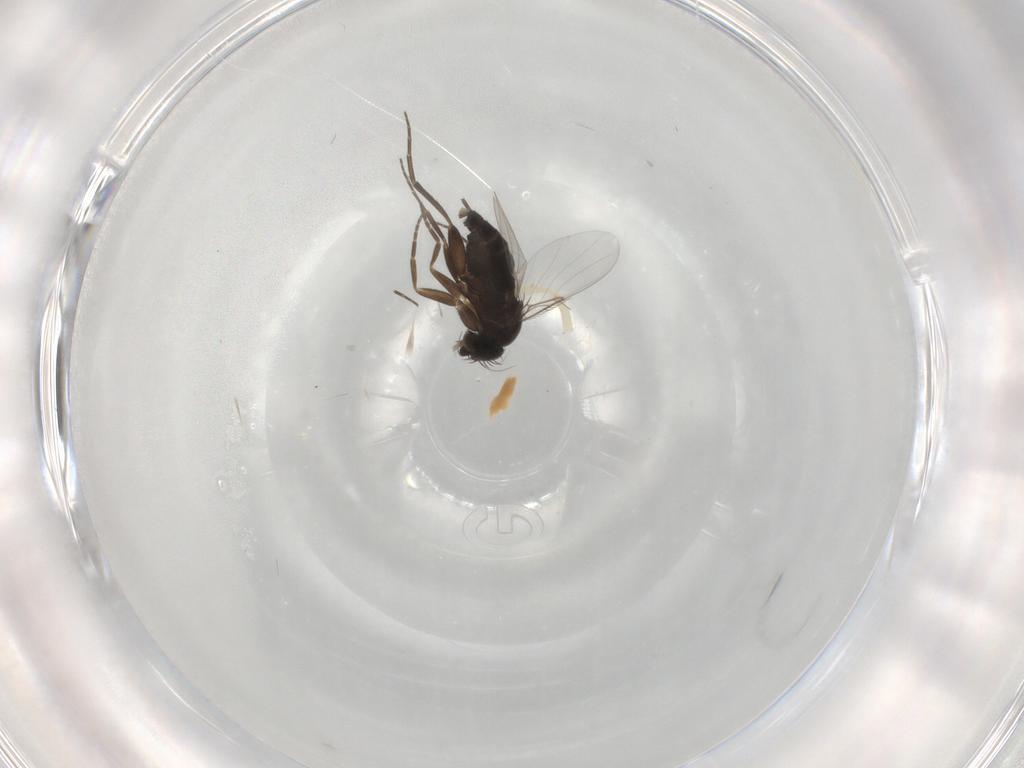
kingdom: Animalia
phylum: Arthropoda
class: Insecta
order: Diptera
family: Phoridae
